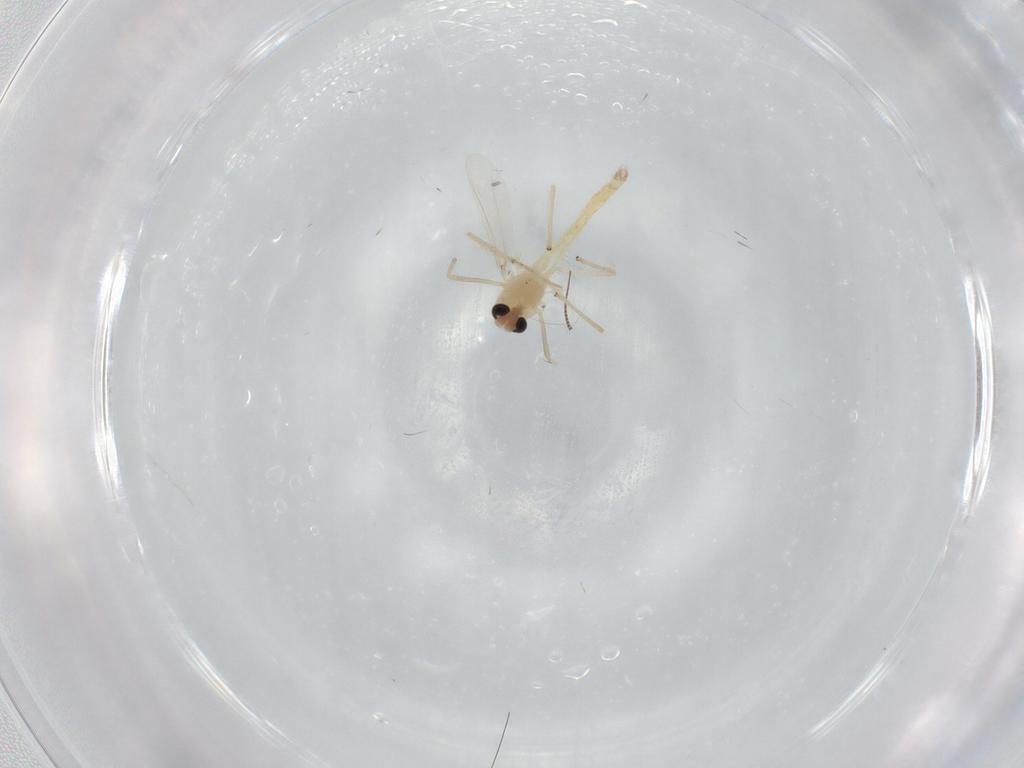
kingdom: Animalia
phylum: Arthropoda
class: Insecta
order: Diptera
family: Chironomidae
